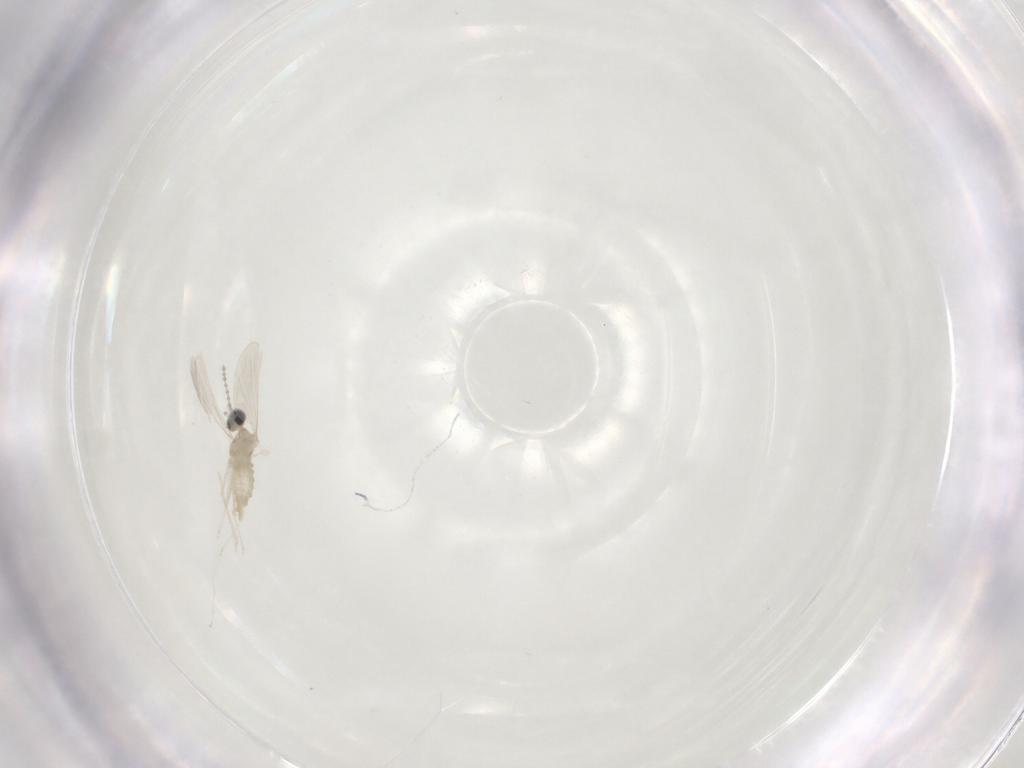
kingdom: Animalia
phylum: Arthropoda
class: Insecta
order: Diptera
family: Cecidomyiidae
